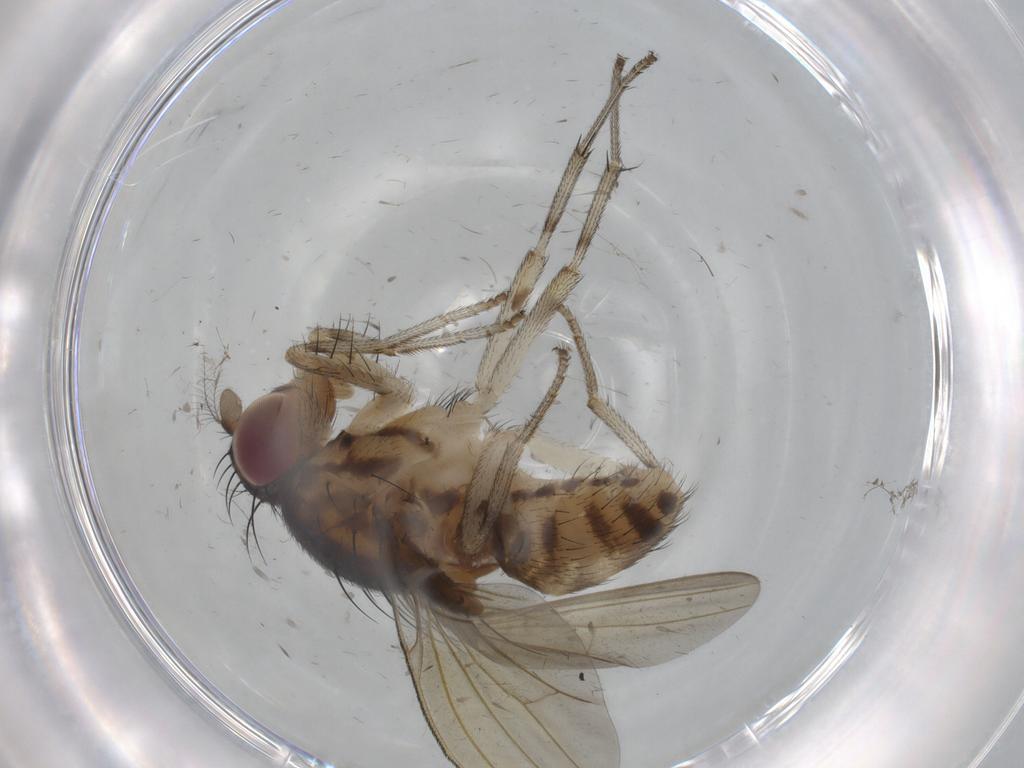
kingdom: Animalia
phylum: Arthropoda
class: Insecta
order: Diptera
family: Lauxaniidae
